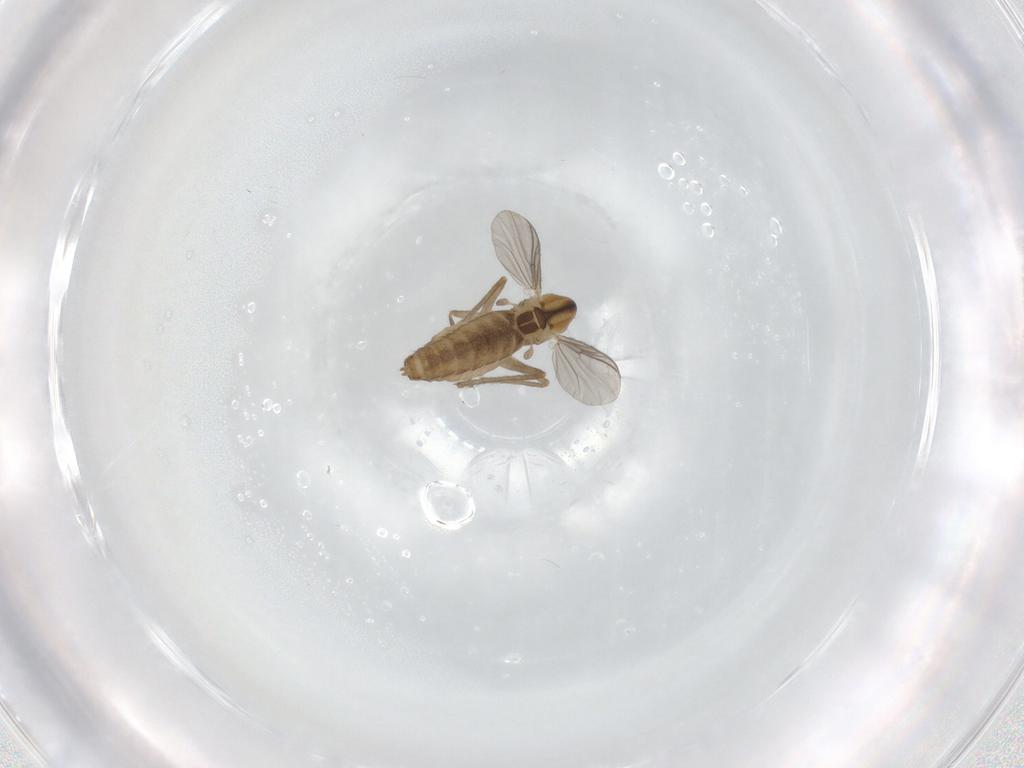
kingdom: Animalia
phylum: Arthropoda
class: Insecta
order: Diptera
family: Chironomidae
